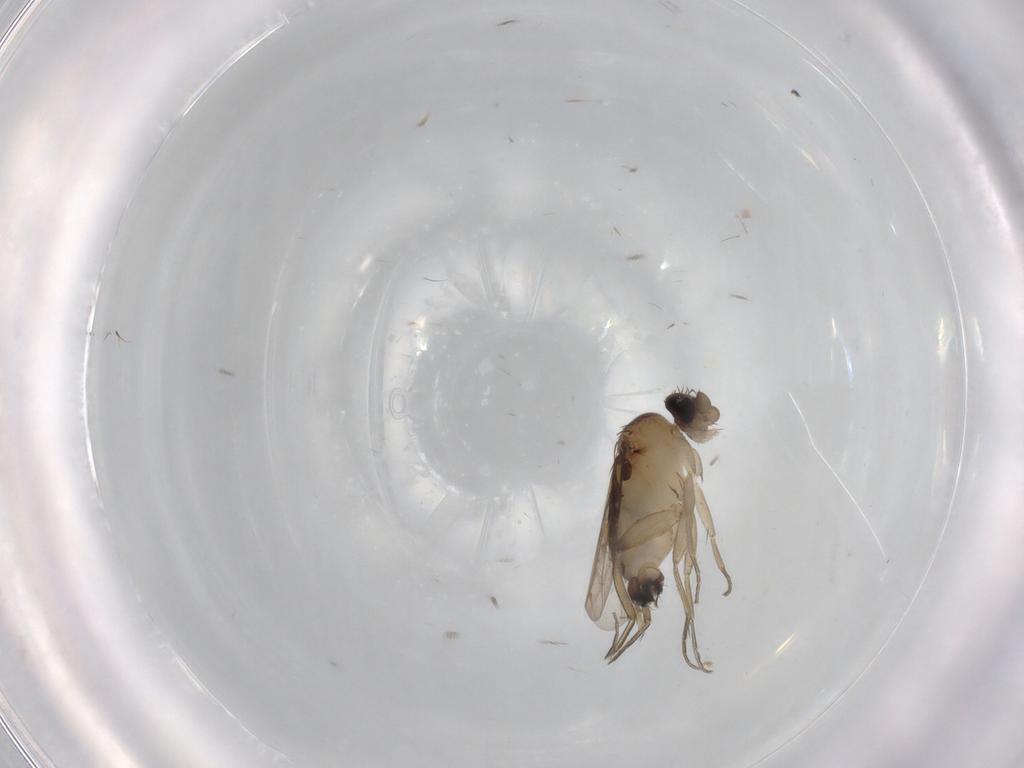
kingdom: Animalia
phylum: Arthropoda
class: Insecta
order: Diptera
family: Phoridae
